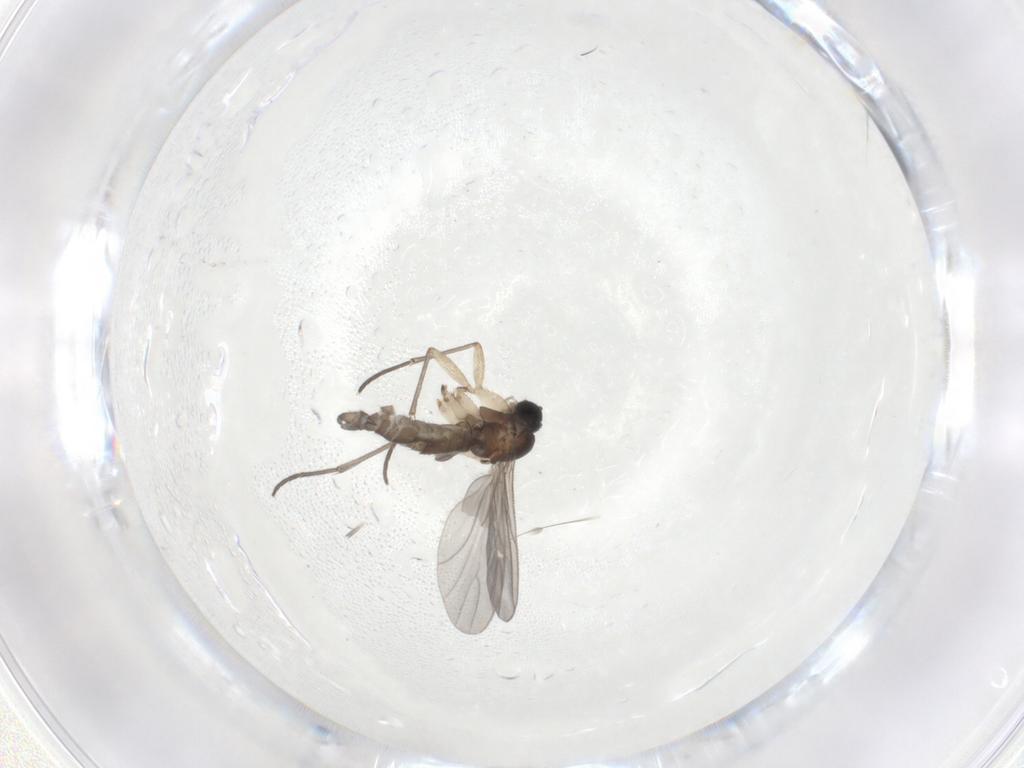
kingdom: Animalia
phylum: Arthropoda
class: Insecta
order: Diptera
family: Sciaridae
